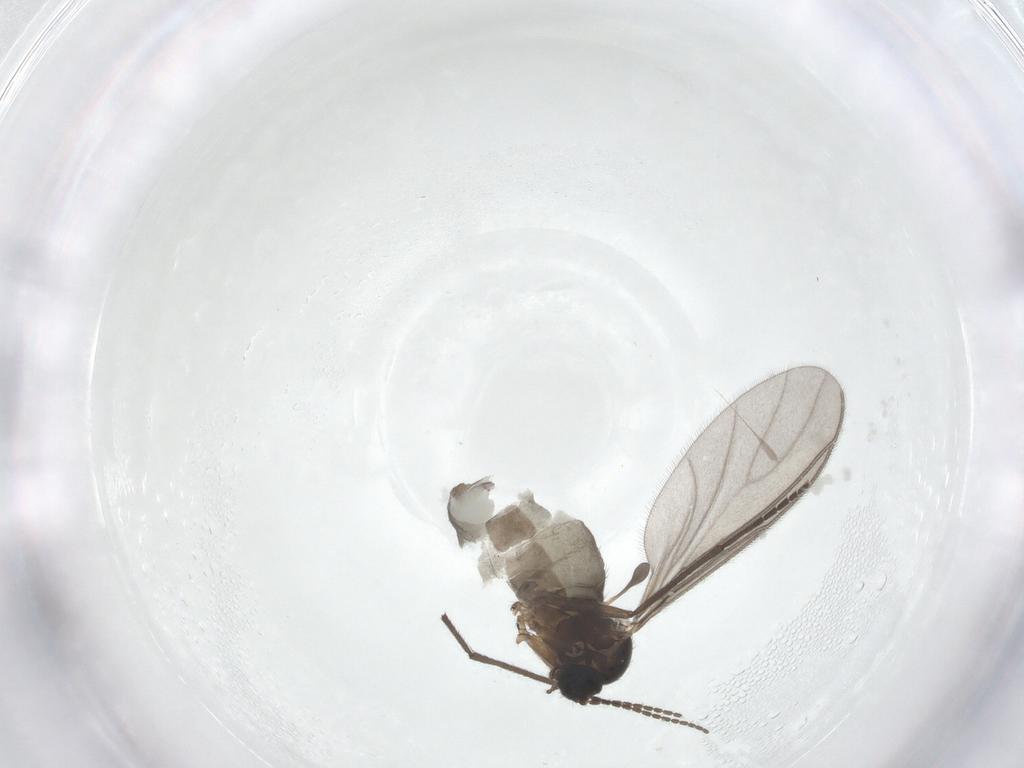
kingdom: Animalia
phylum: Arthropoda
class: Insecta
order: Diptera
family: Sciaridae
